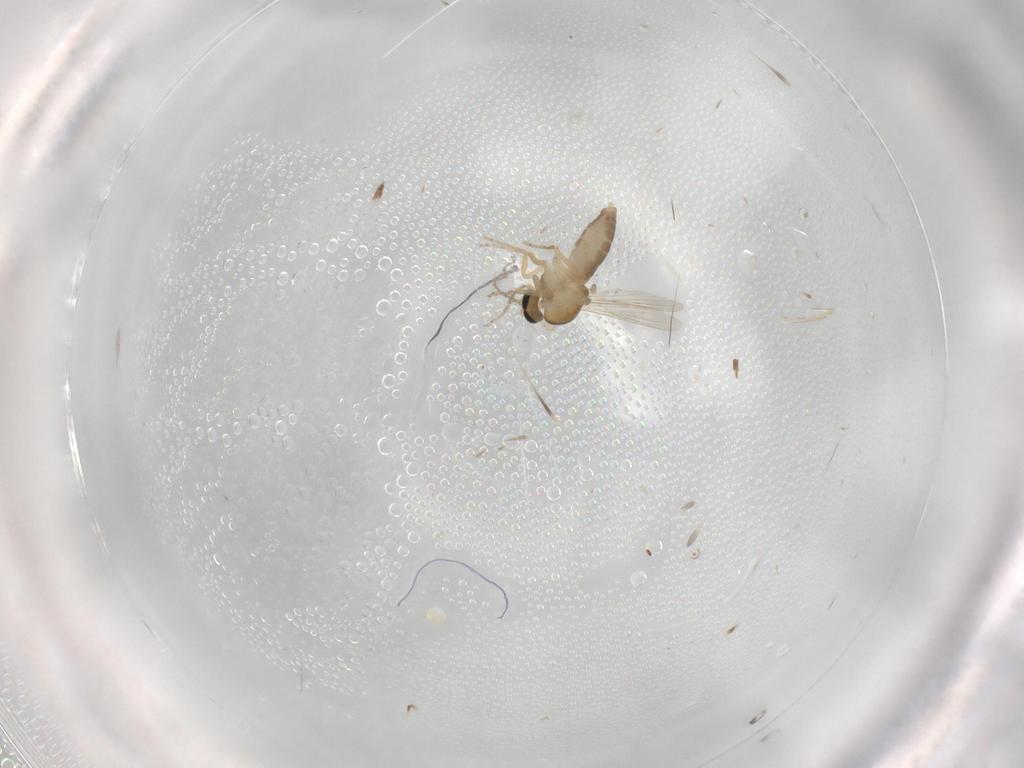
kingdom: Animalia
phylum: Arthropoda
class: Insecta
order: Diptera
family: Ceratopogonidae
